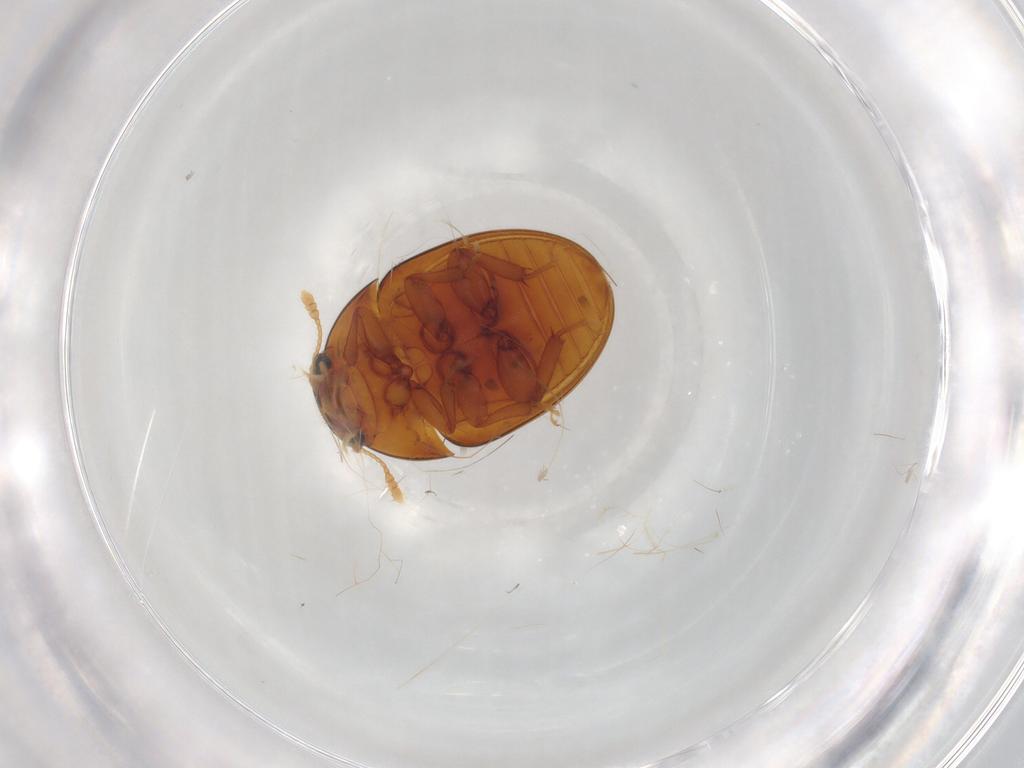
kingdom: Animalia
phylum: Arthropoda
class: Insecta
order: Coleoptera
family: Phalacridae
